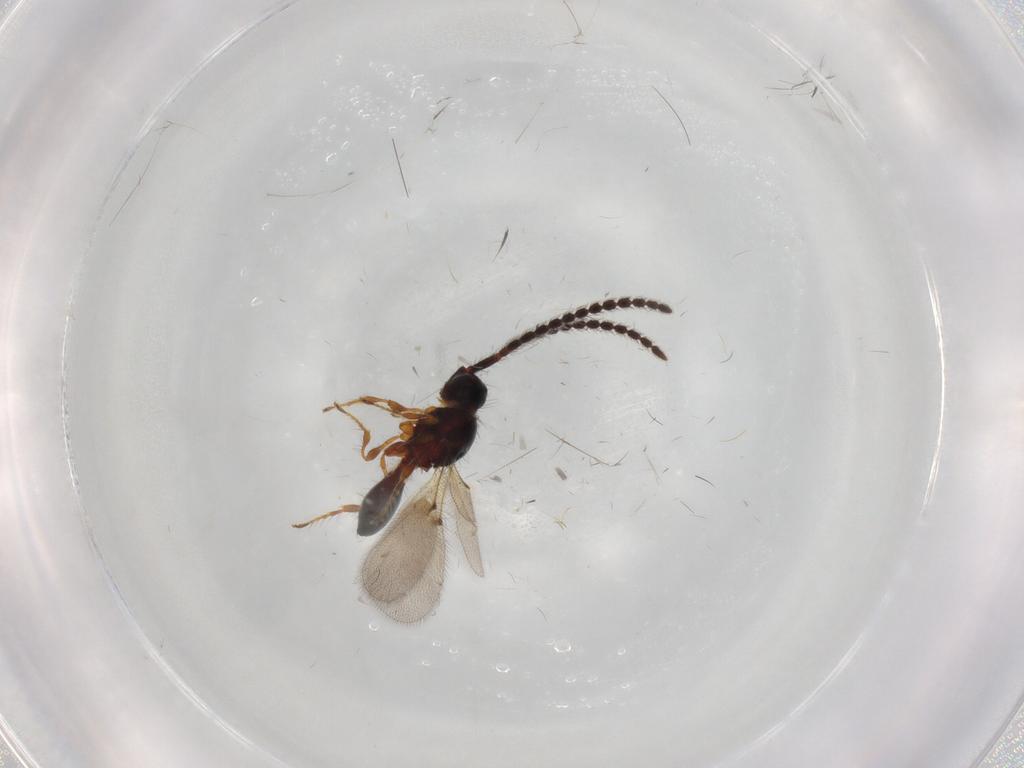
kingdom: Animalia
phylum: Arthropoda
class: Insecta
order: Hymenoptera
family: Diapriidae
